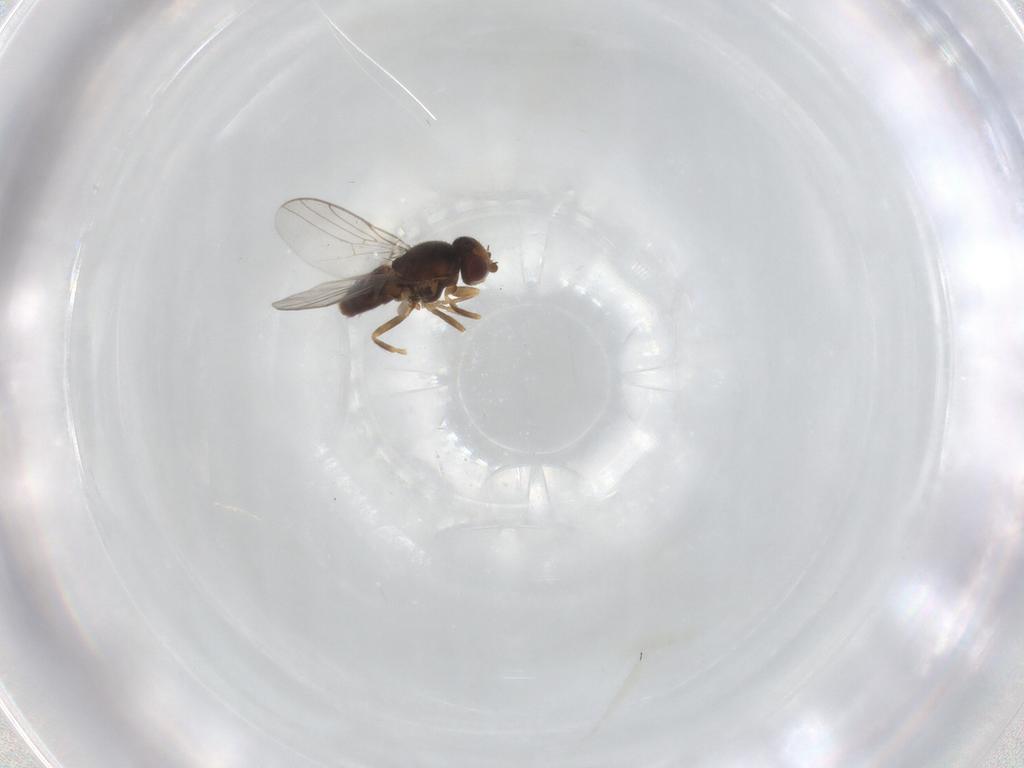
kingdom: Animalia
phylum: Arthropoda
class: Insecta
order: Diptera
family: Chloropidae
